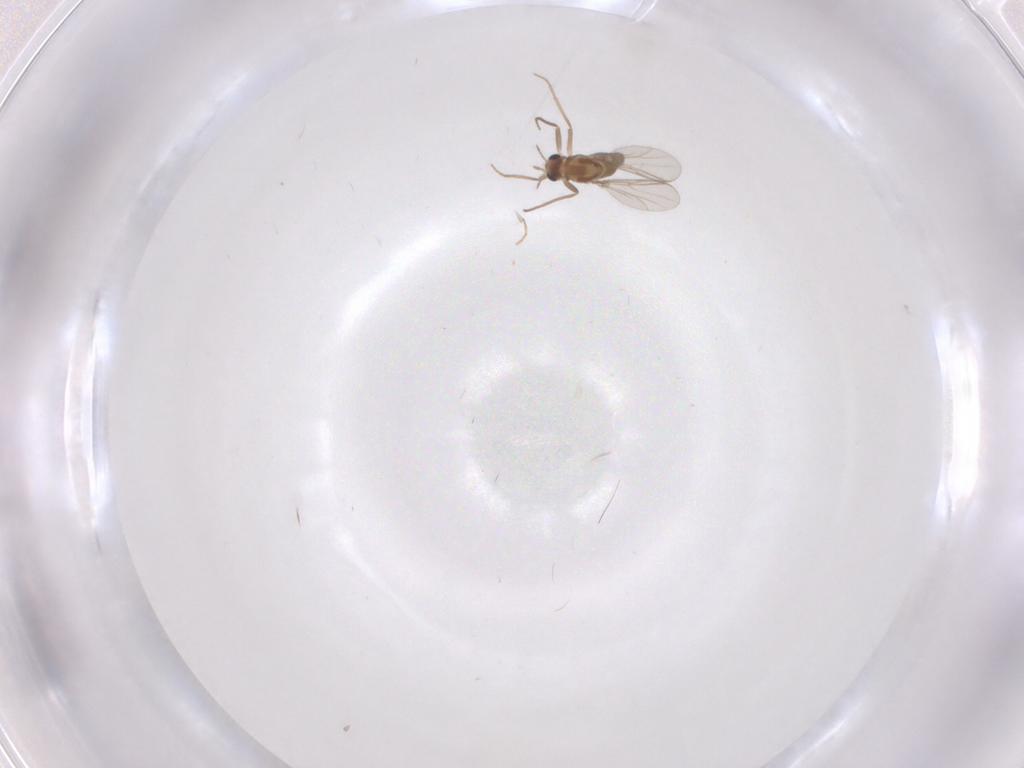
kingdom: Animalia
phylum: Arthropoda
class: Insecta
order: Diptera
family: Chironomidae
